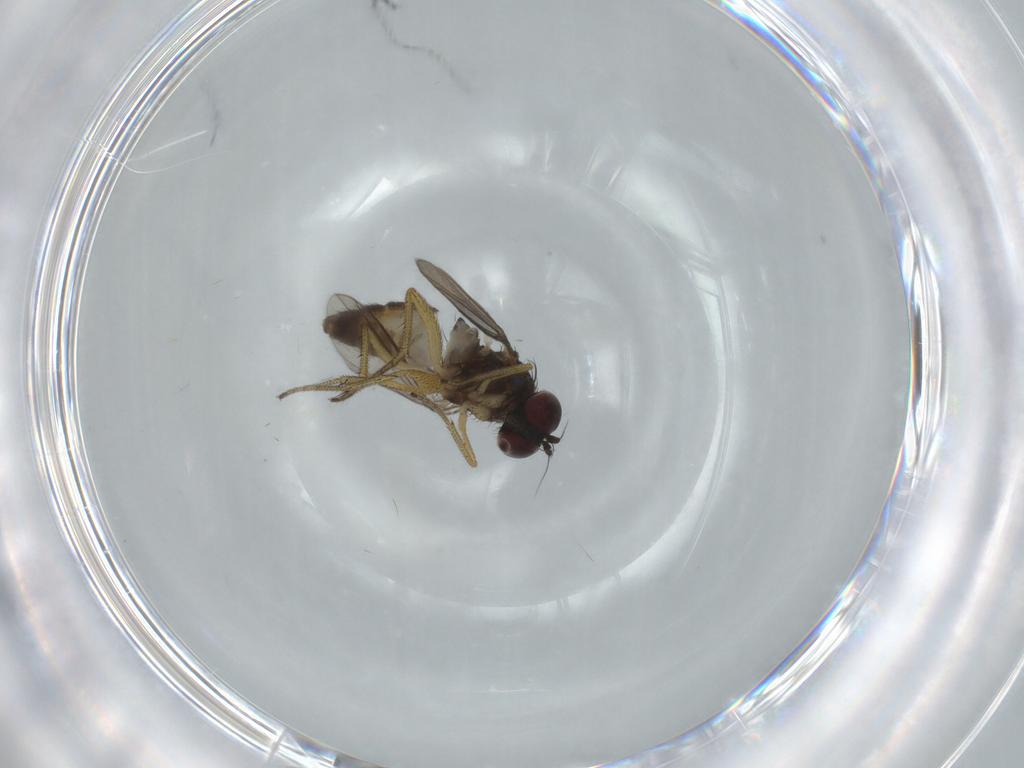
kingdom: Animalia
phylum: Arthropoda
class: Insecta
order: Diptera
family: Dolichopodidae
